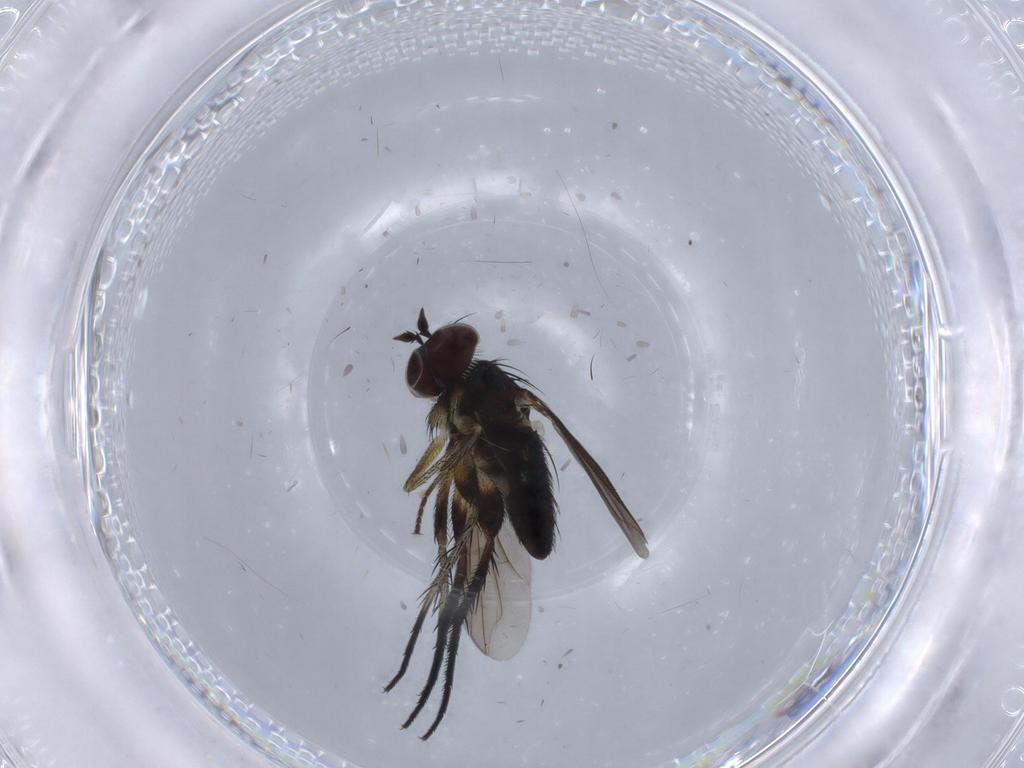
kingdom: Animalia
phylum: Arthropoda
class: Insecta
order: Diptera
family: Dolichopodidae
